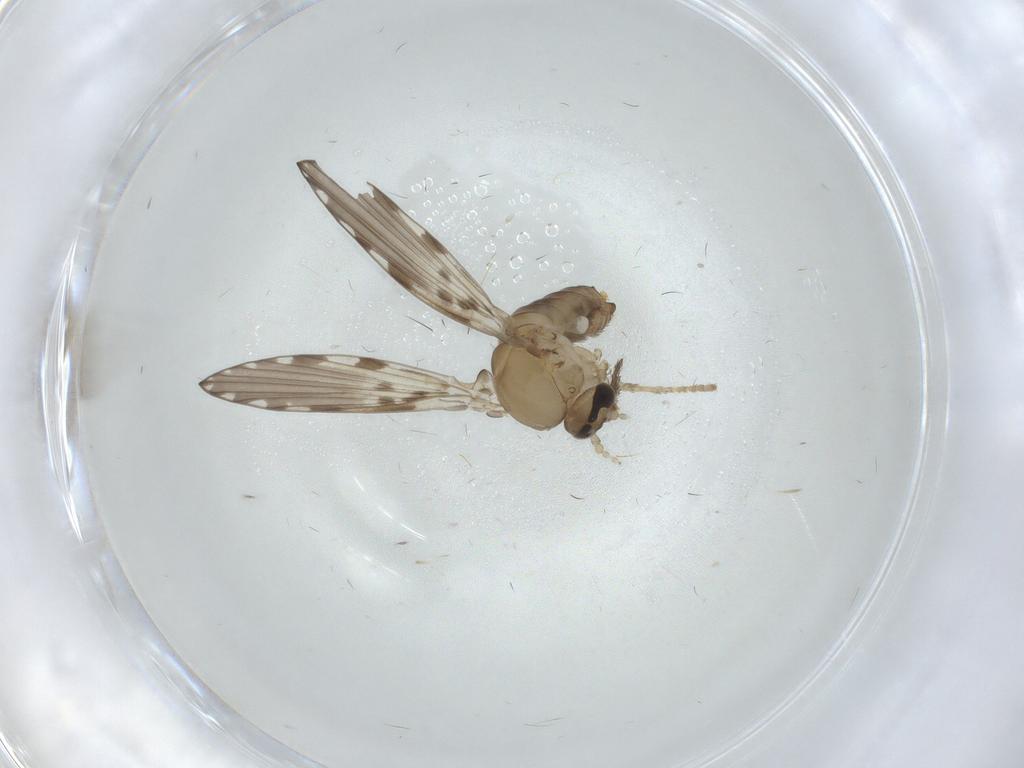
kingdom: Animalia
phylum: Arthropoda
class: Insecta
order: Diptera
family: Psychodidae
